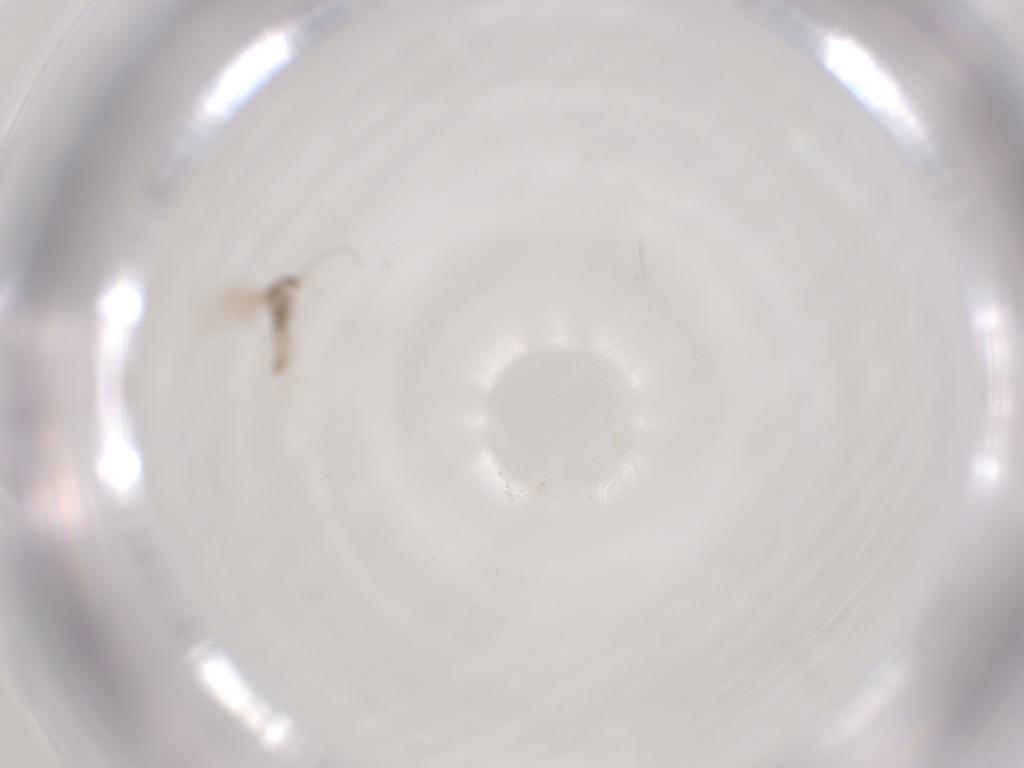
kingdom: Animalia
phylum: Arthropoda
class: Insecta
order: Diptera
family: Cecidomyiidae
